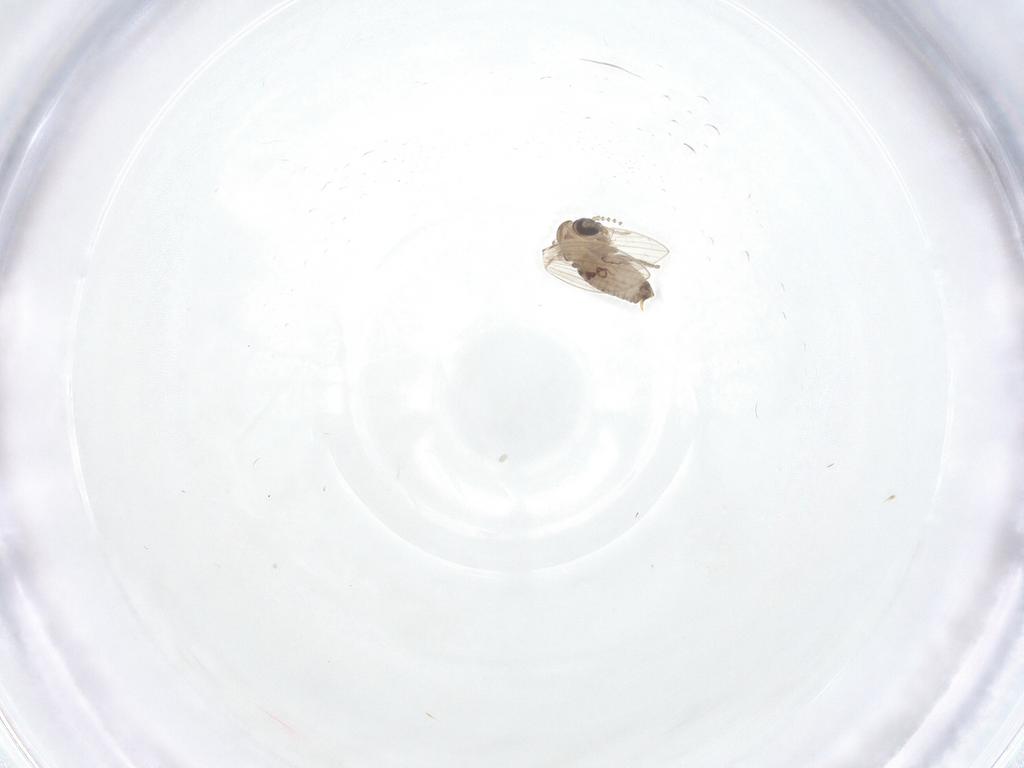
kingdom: Animalia
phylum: Arthropoda
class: Insecta
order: Diptera
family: Psychodidae
